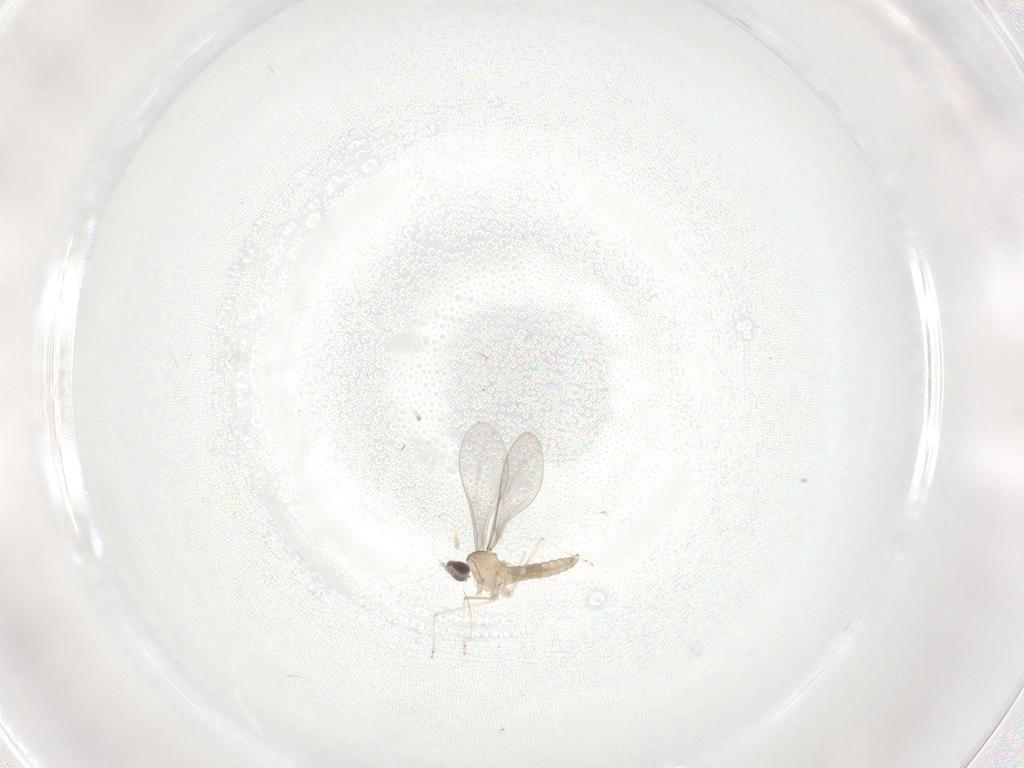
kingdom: Animalia
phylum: Arthropoda
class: Insecta
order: Diptera
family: Cecidomyiidae
